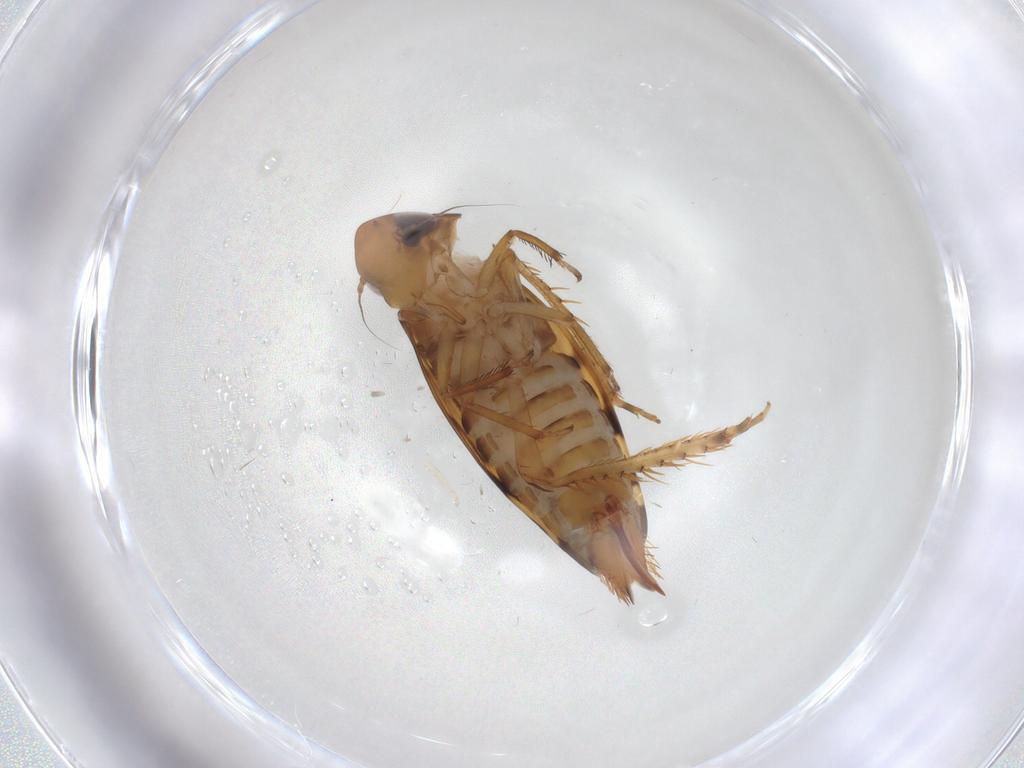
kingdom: Animalia
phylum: Arthropoda
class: Insecta
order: Hemiptera
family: Cicadellidae
